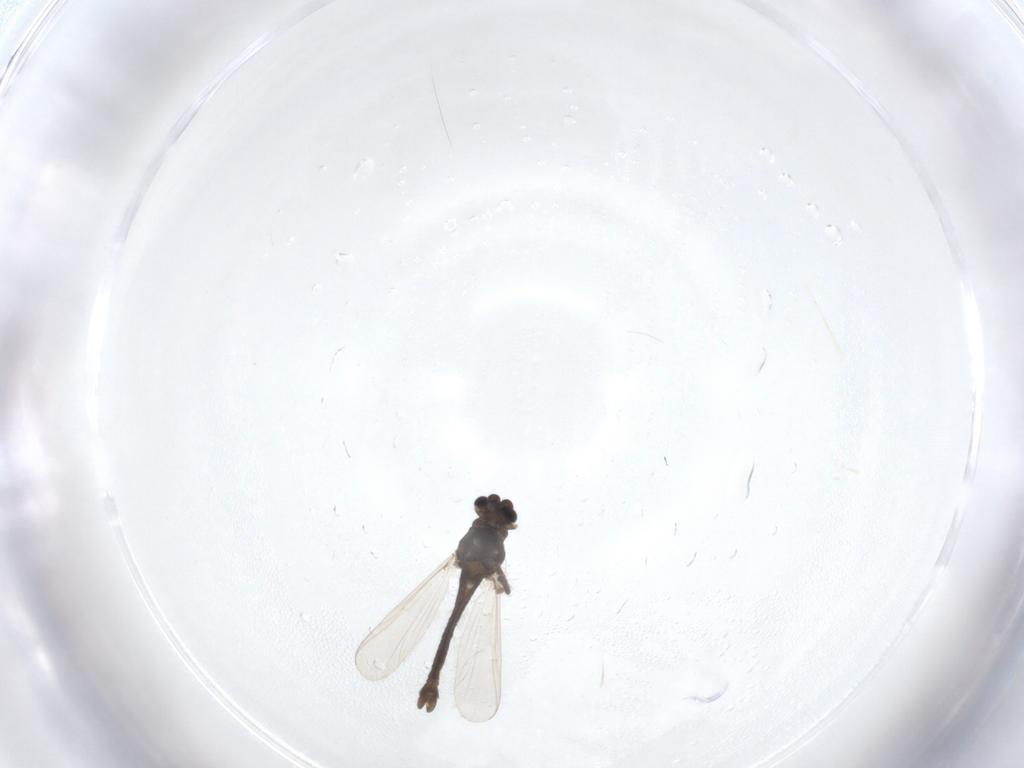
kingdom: Animalia
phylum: Arthropoda
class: Insecta
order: Diptera
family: Chironomidae
